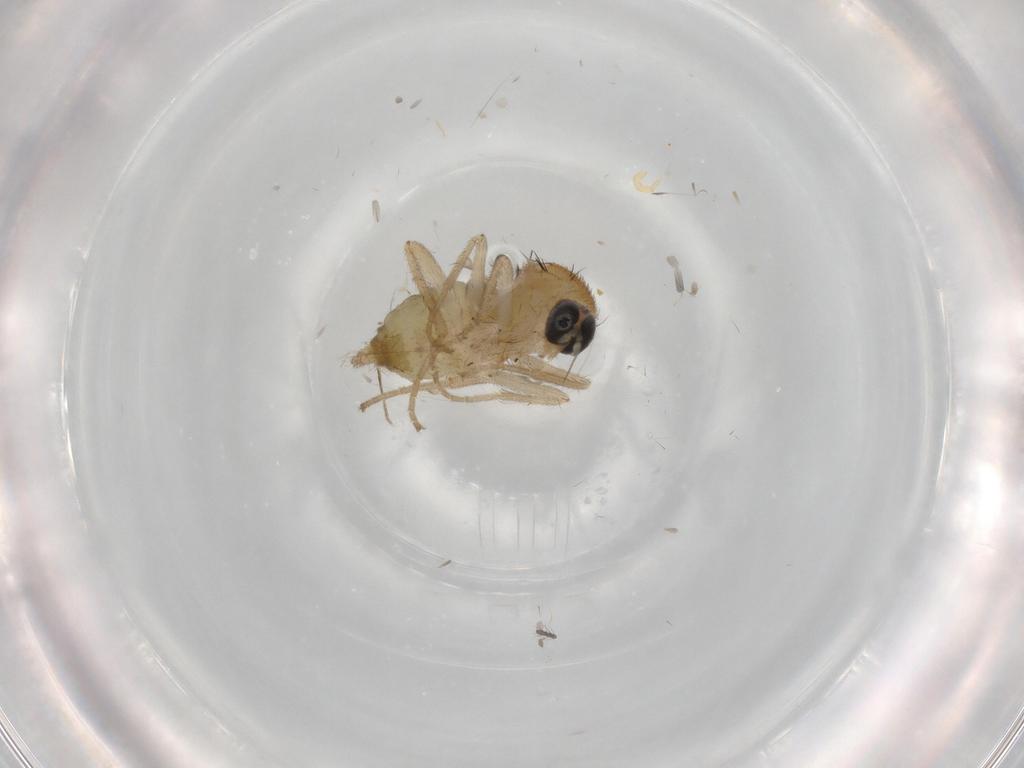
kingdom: Animalia
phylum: Arthropoda
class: Insecta
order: Diptera
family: Hybotidae
